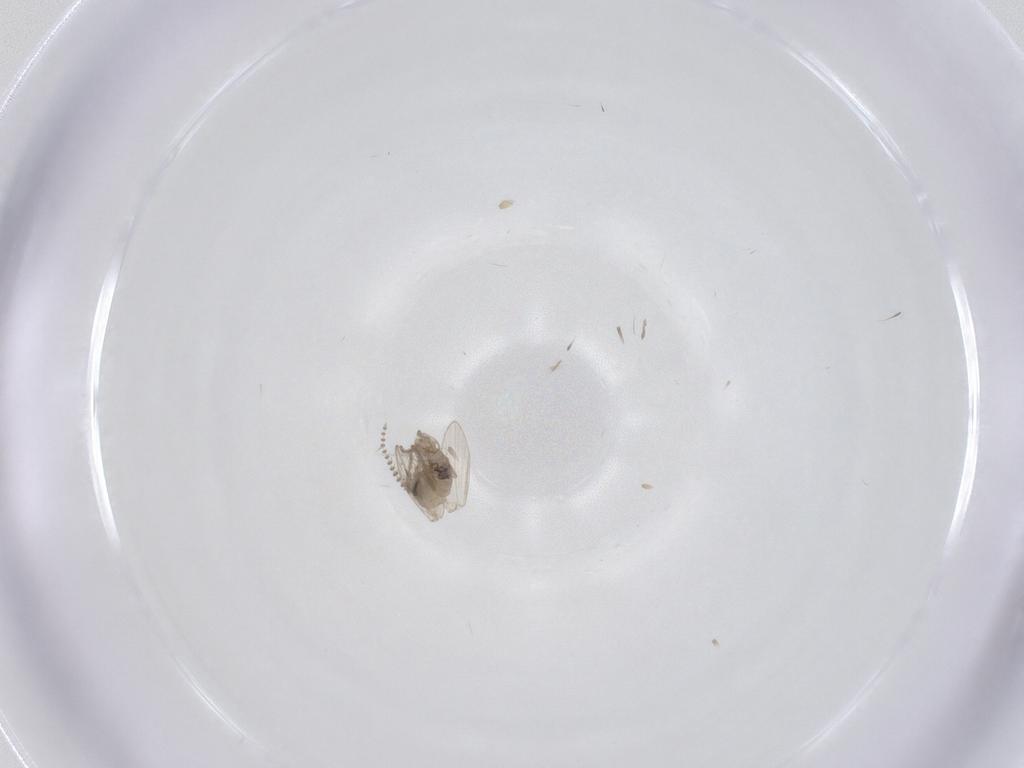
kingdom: Animalia
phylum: Arthropoda
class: Insecta
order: Diptera
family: Psychodidae
